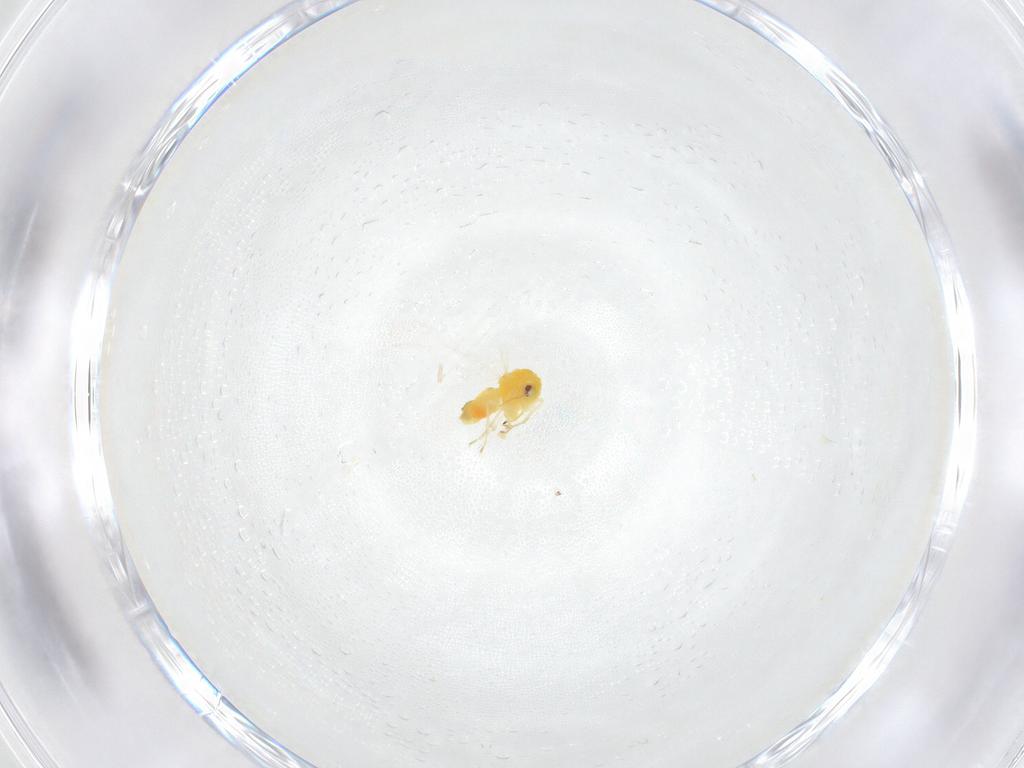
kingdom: Animalia
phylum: Arthropoda
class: Insecta
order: Hemiptera
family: Aleyrodidae
